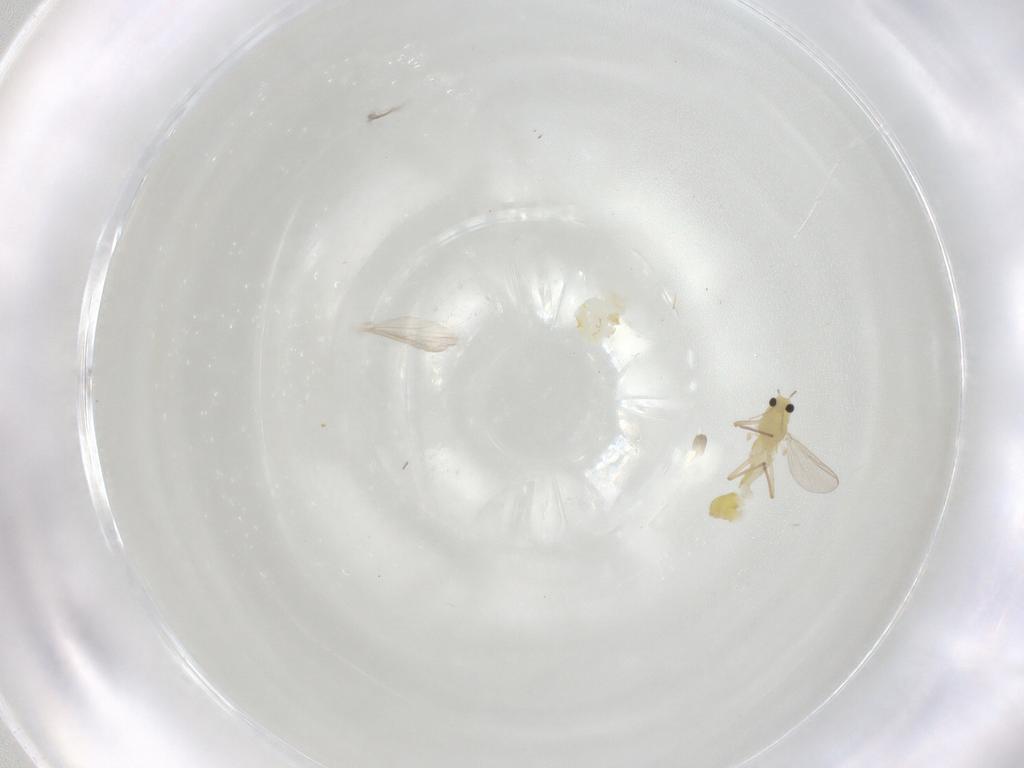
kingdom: Animalia
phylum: Arthropoda
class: Insecta
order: Diptera
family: Chironomidae
